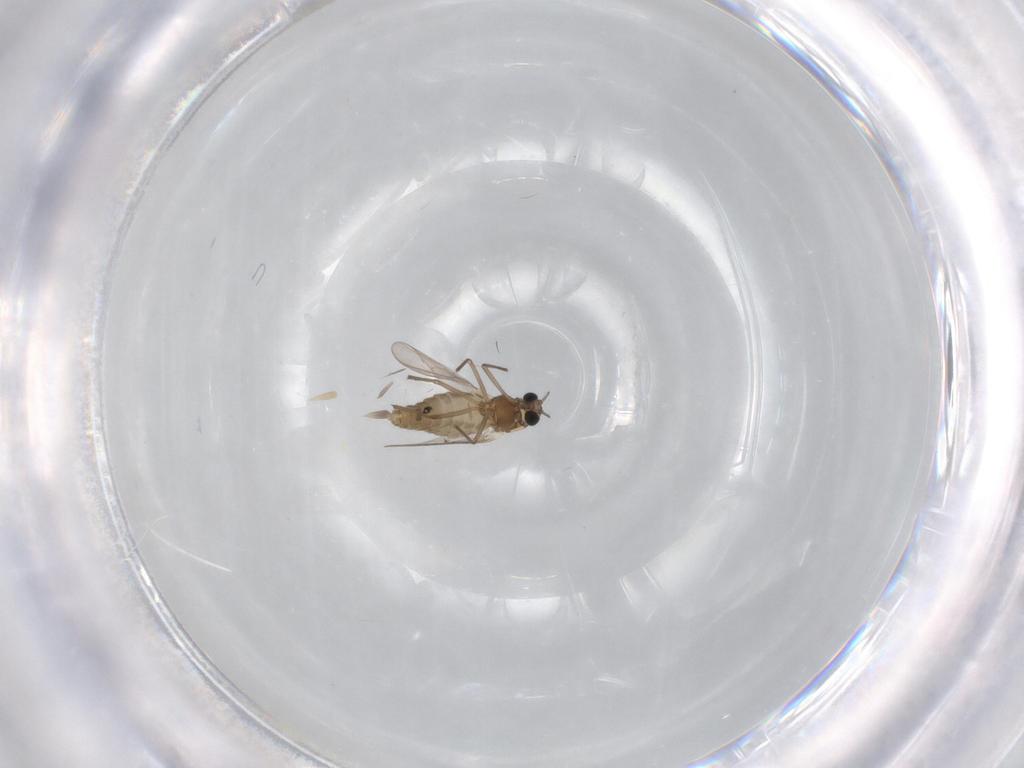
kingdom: Animalia
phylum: Arthropoda
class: Insecta
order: Diptera
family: Chironomidae
